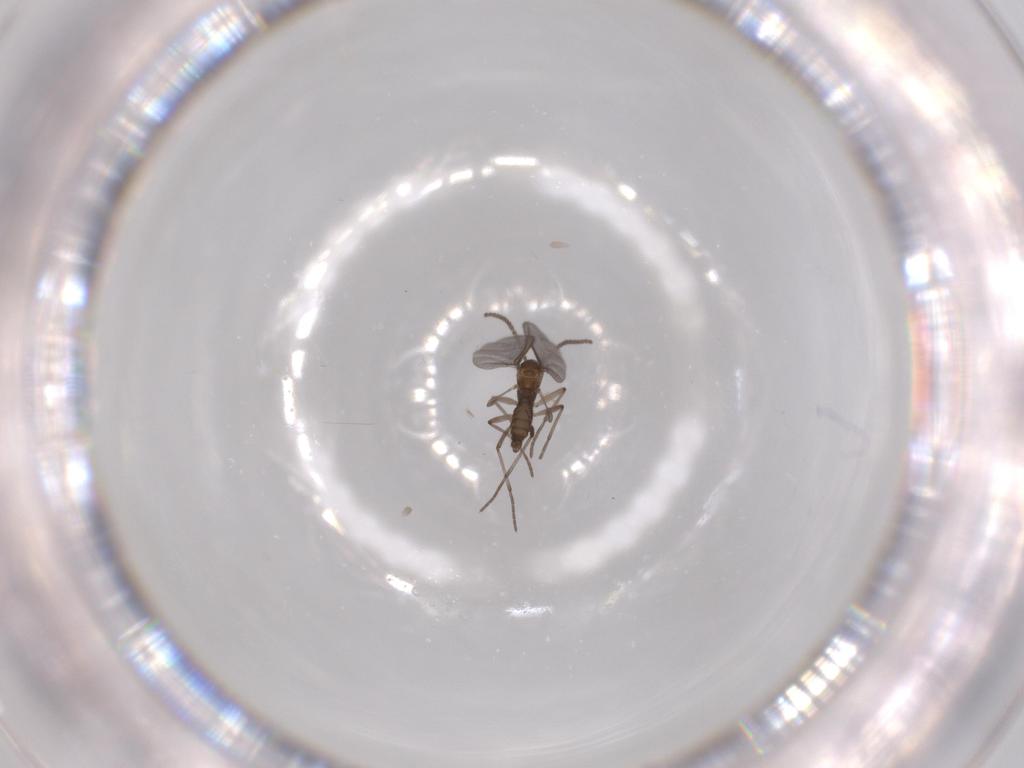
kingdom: Animalia
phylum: Arthropoda
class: Insecta
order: Diptera
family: Sciaridae
